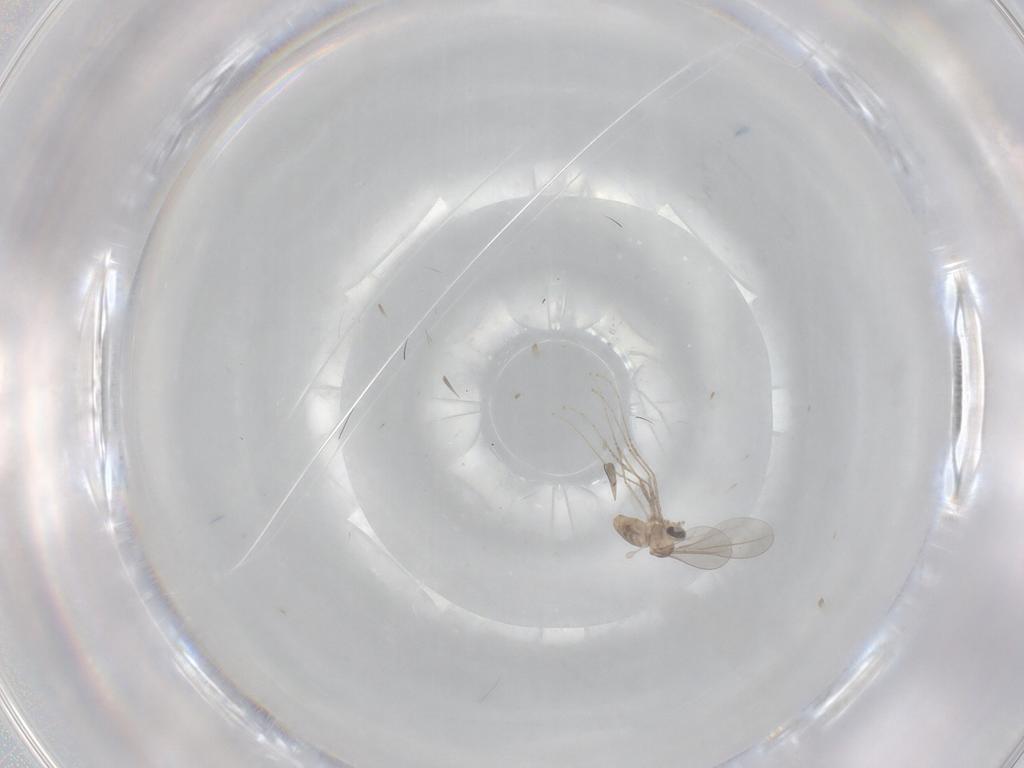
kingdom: Animalia
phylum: Arthropoda
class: Insecta
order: Diptera
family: Cecidomyiidae
